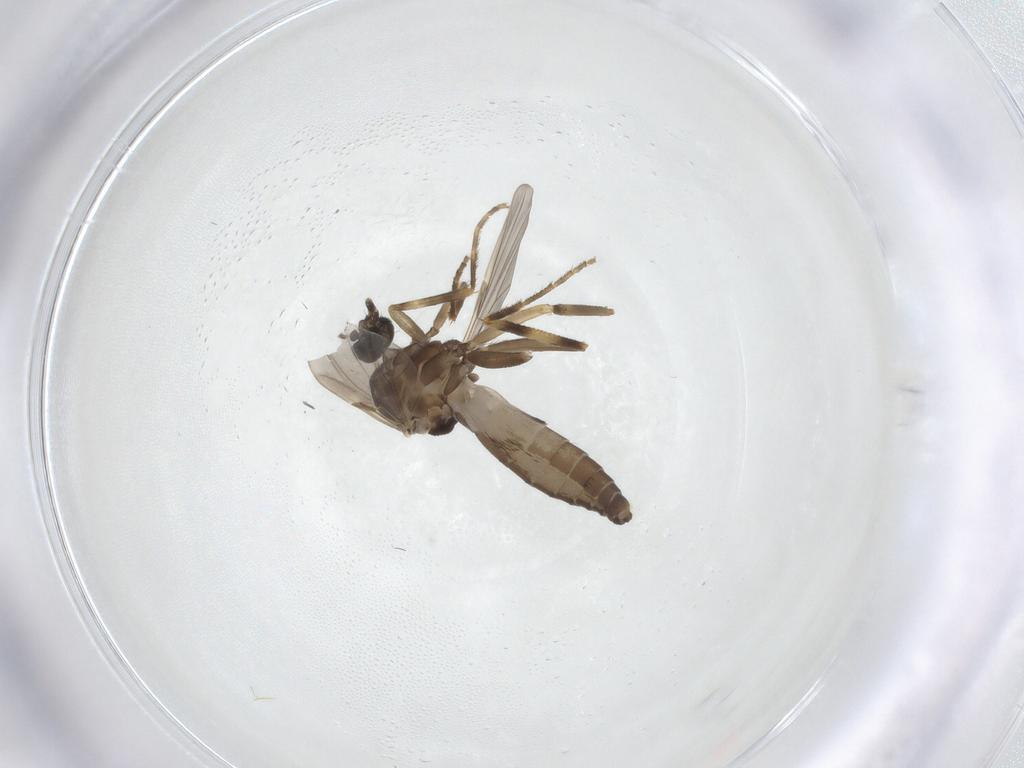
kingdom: Animalia
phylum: Arthropoda
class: Insecta
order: Diptera
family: Ceratopogonidae
